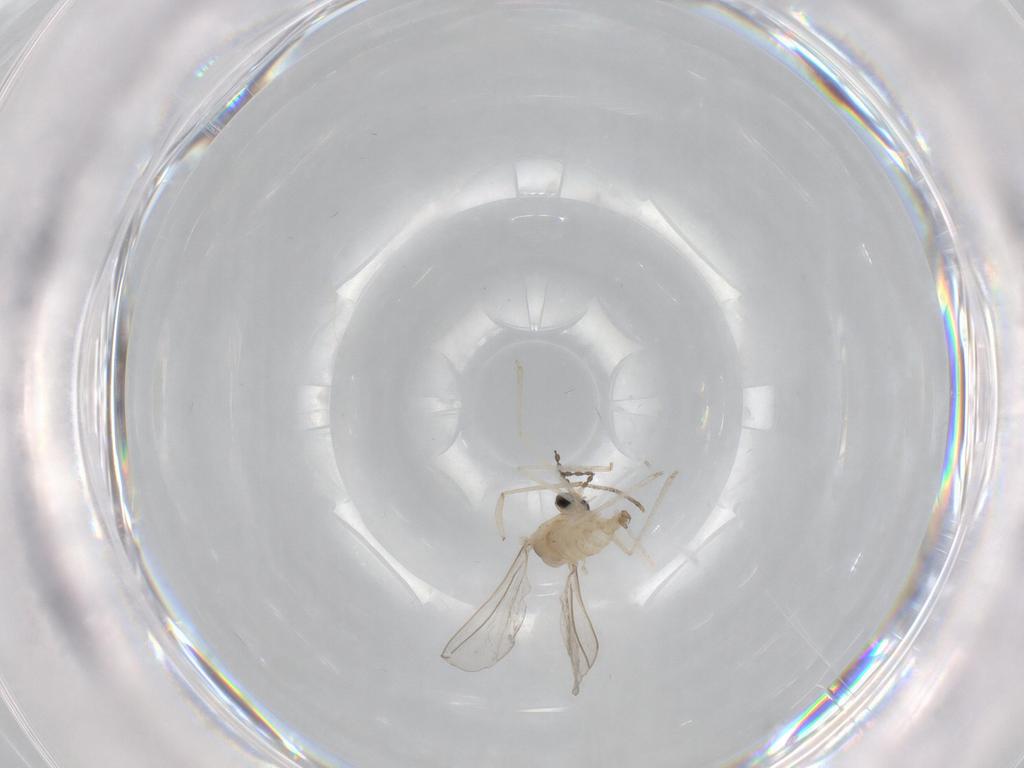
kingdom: Animalia
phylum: Arthropoda
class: Insecta
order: Diptera
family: Cecidomyiidae
